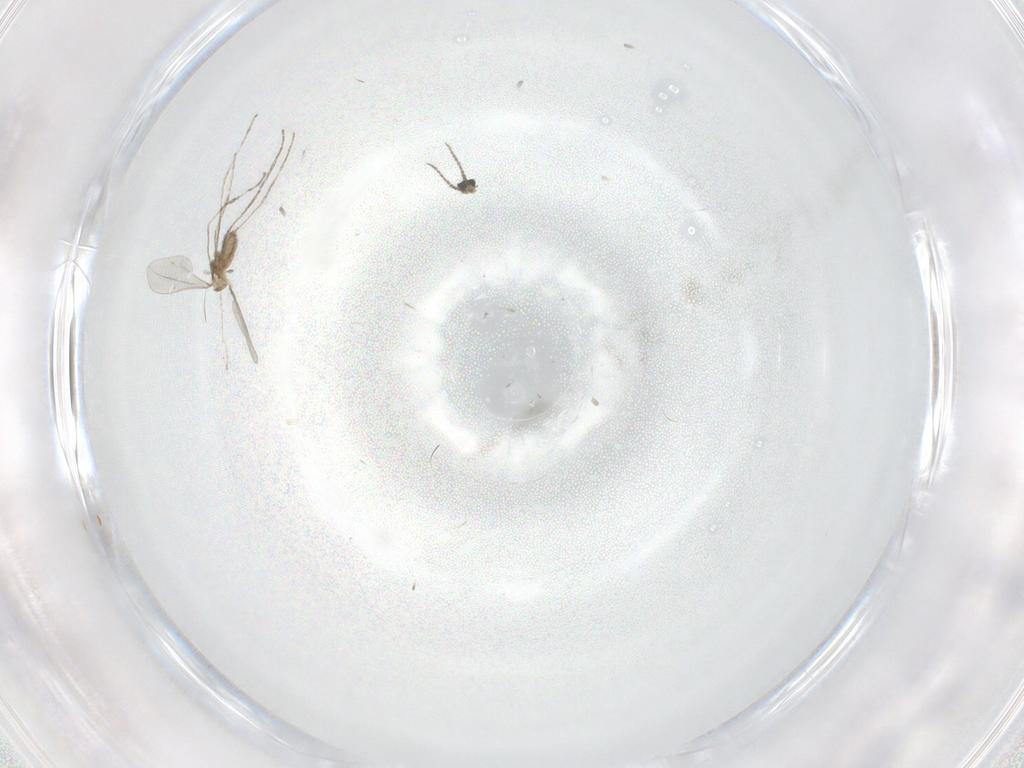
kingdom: Animalia
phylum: Arthropoda
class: Insecta
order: Diptera
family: Cecidomyiidae
